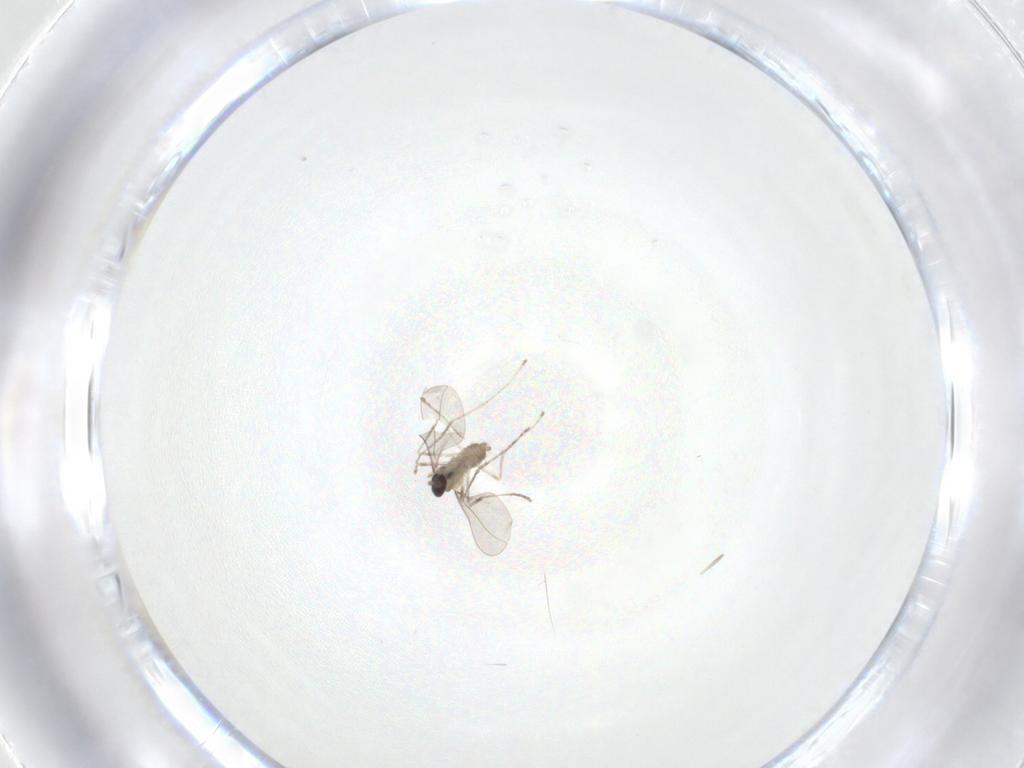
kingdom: Animalia
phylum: Arthropoda
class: Insecta
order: Diptera
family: Cecidomyiidae
